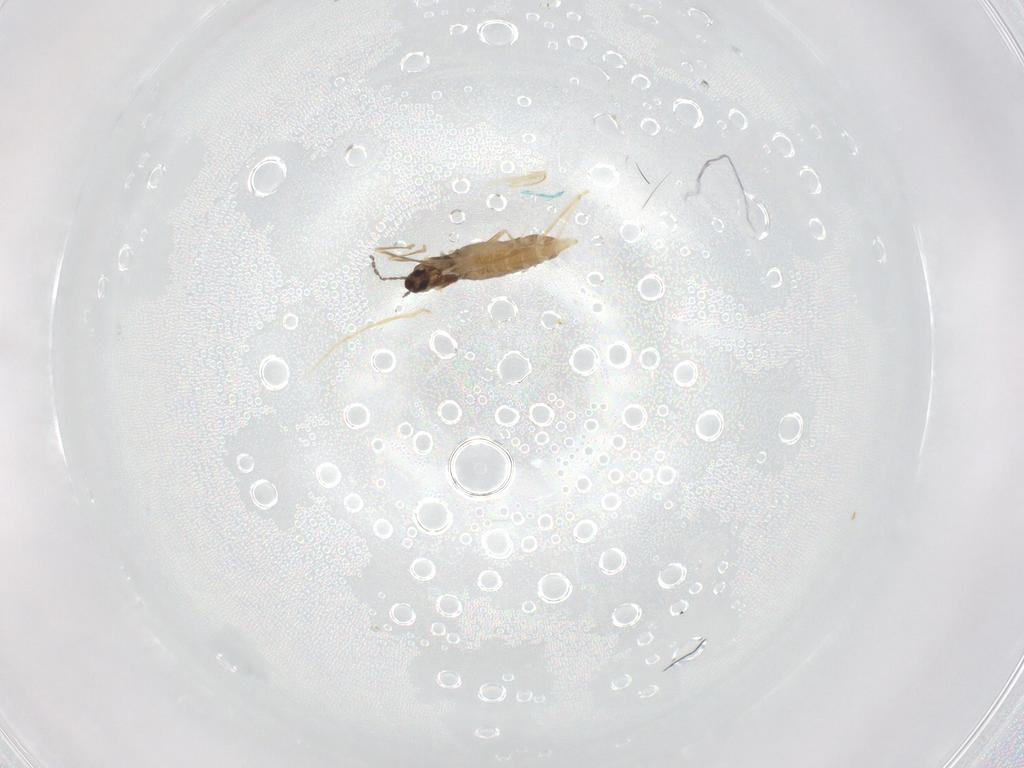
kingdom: Animalia
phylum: Arthropoda
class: Insecta
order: Diptera
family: Cecidomyiidae
